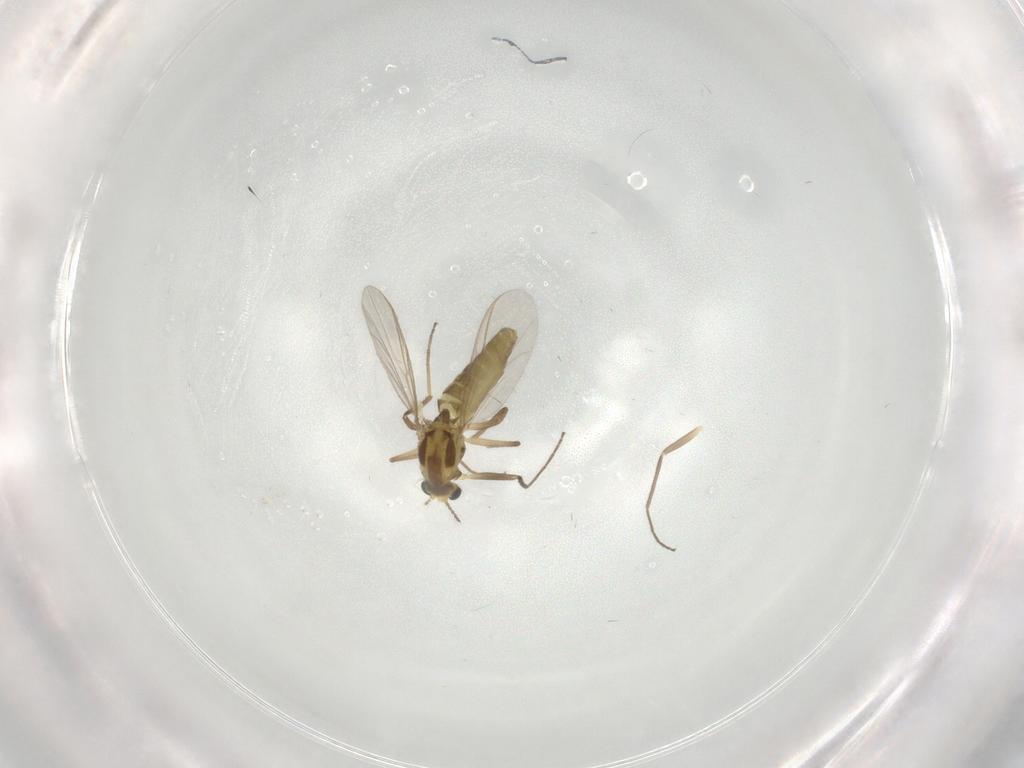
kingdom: Animalia
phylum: Arthropoda
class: Insecta
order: Diptera
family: Chironomidae
